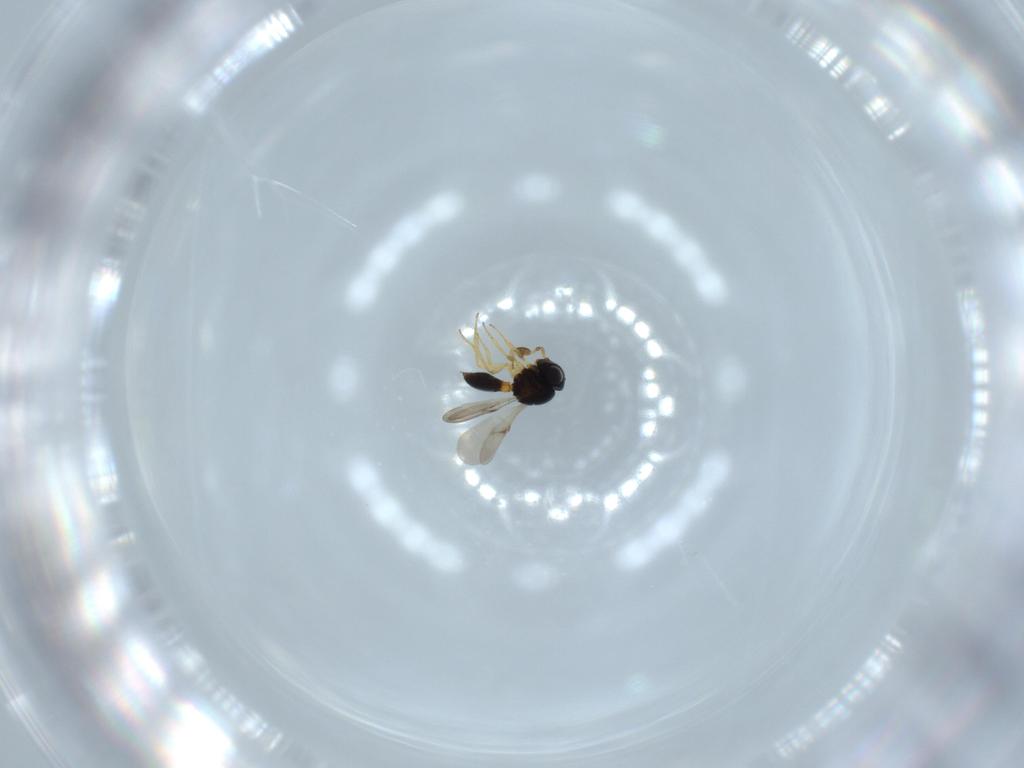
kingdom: Animalia
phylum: Arthropoda
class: Insecta
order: Hymenoptera
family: Scelionidae
